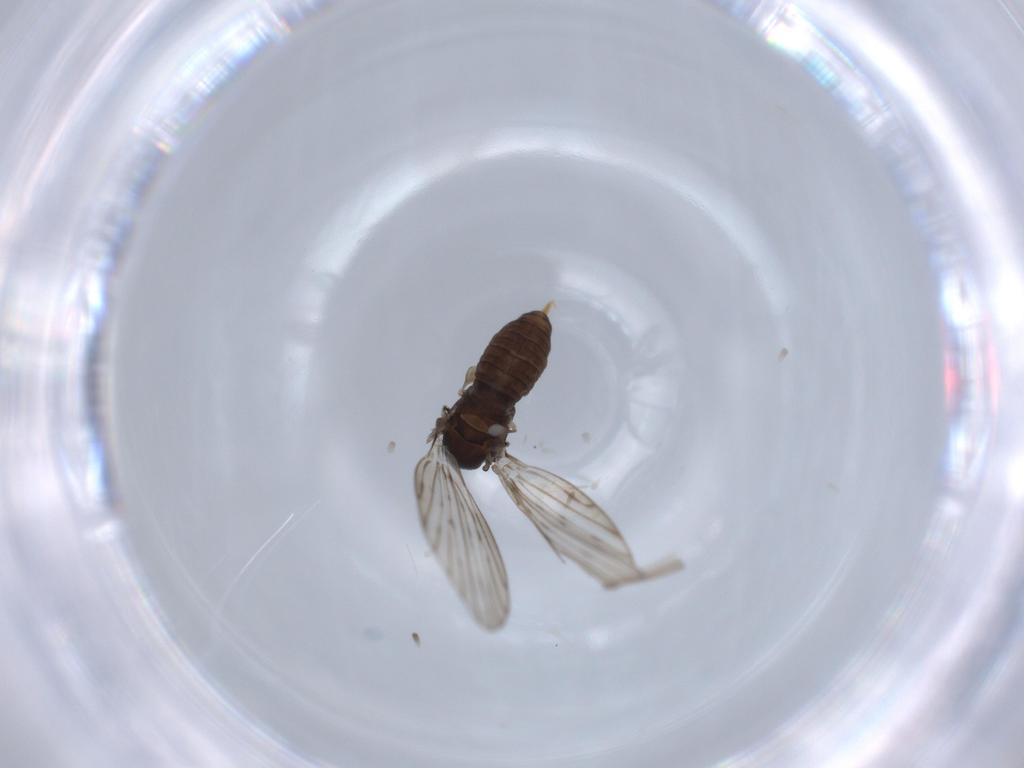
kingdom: Animalia
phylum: Arthropoda
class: Insecta
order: Diptera
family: Psychodidae
